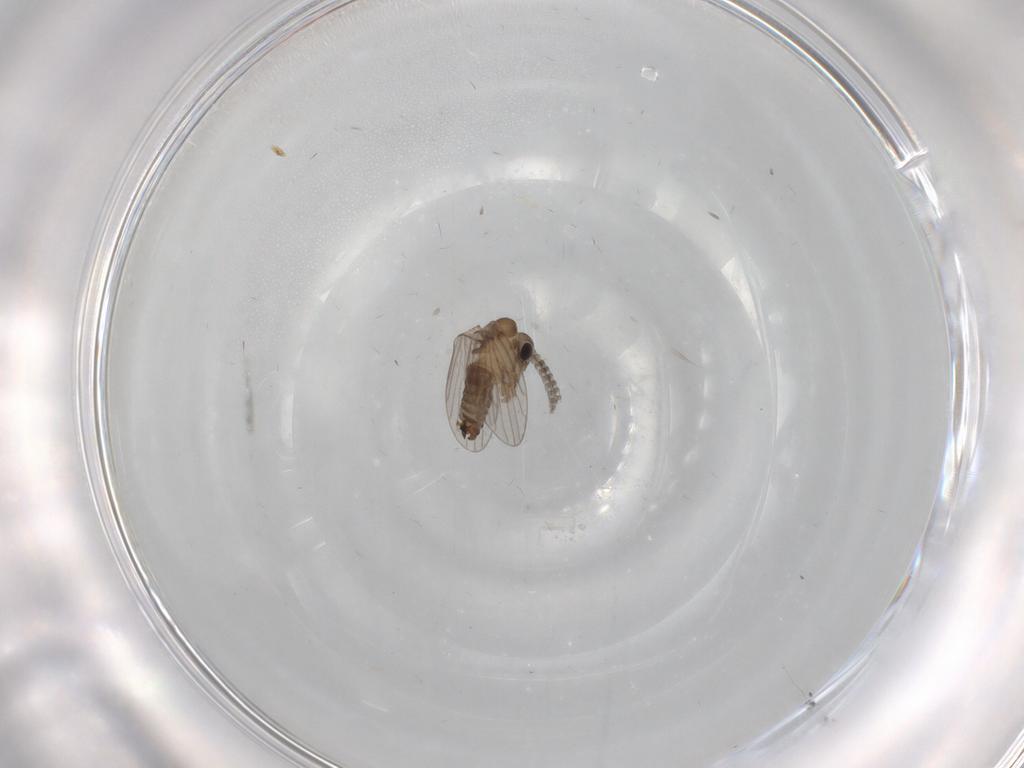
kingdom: Animalia
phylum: Arthropoda
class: Insecta
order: Diptera
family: Psychodidae
